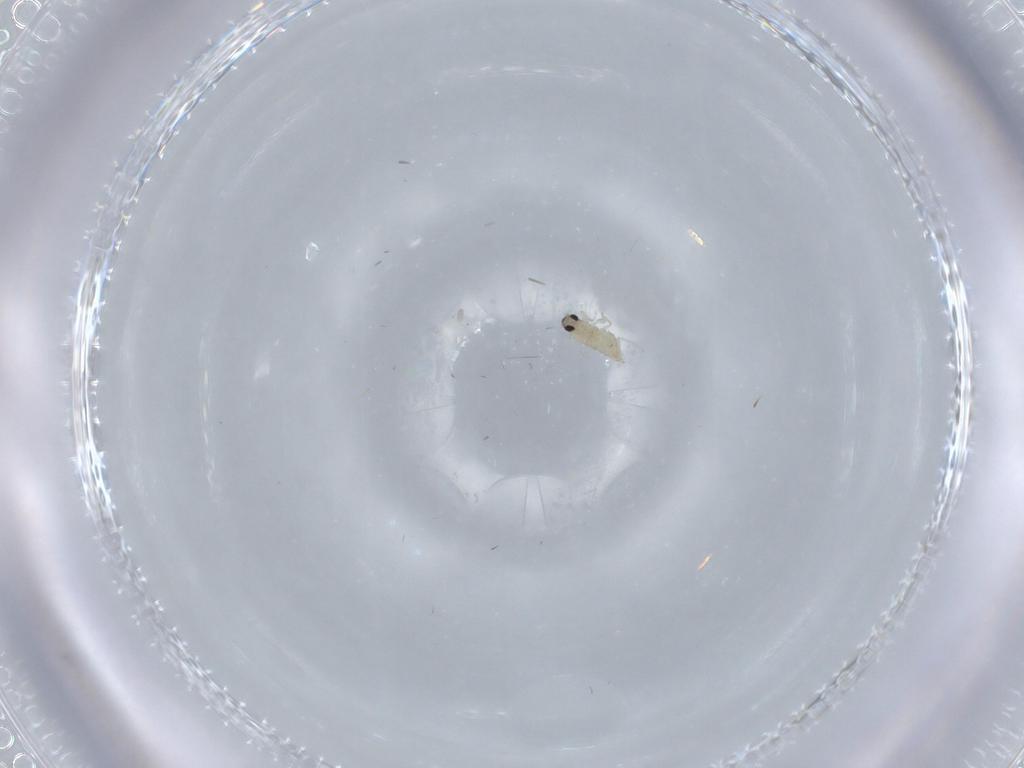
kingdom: Animalia
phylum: Arthropoda
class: Insecta
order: Diptera
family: Cecidomyiidae
